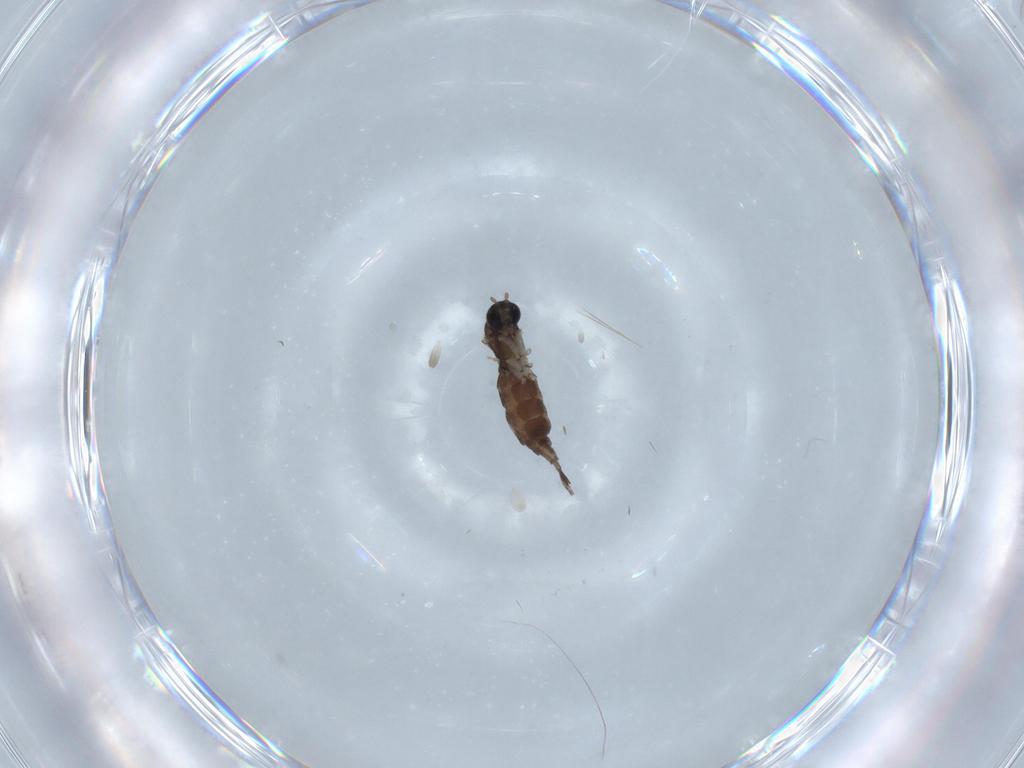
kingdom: Animalia
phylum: Arthropoda
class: Insecta
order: Diptera
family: Sciaridae
